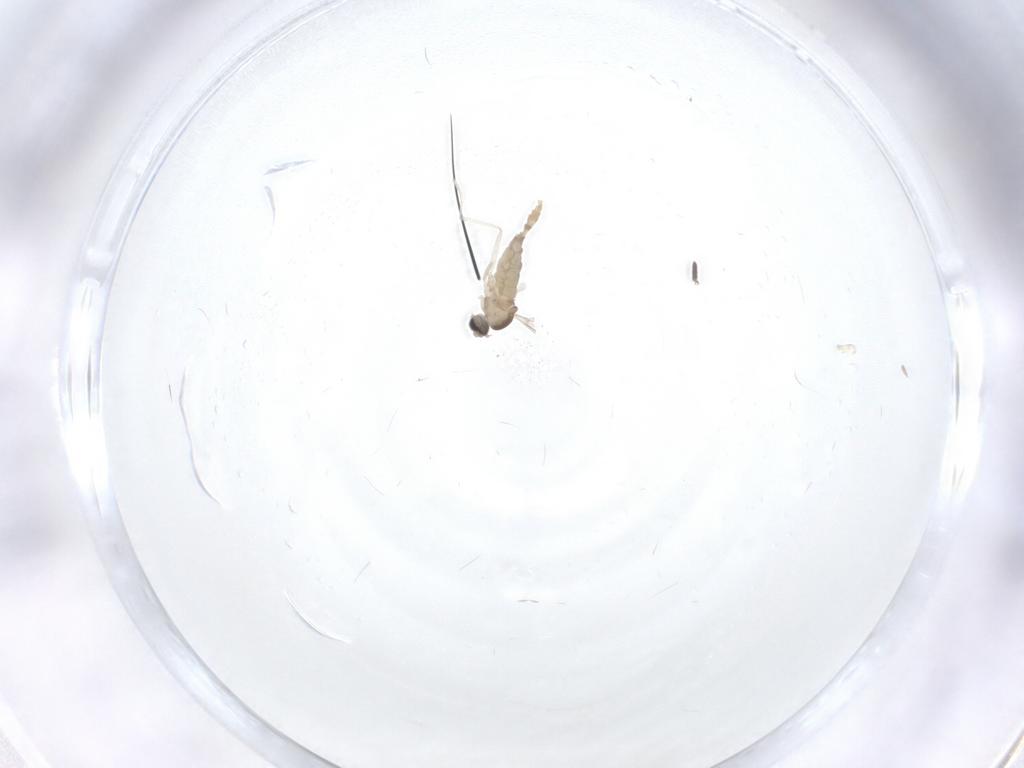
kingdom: Animalia
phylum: Arthropoda
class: Insecta
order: Diptera
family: Cecidomyiidae
